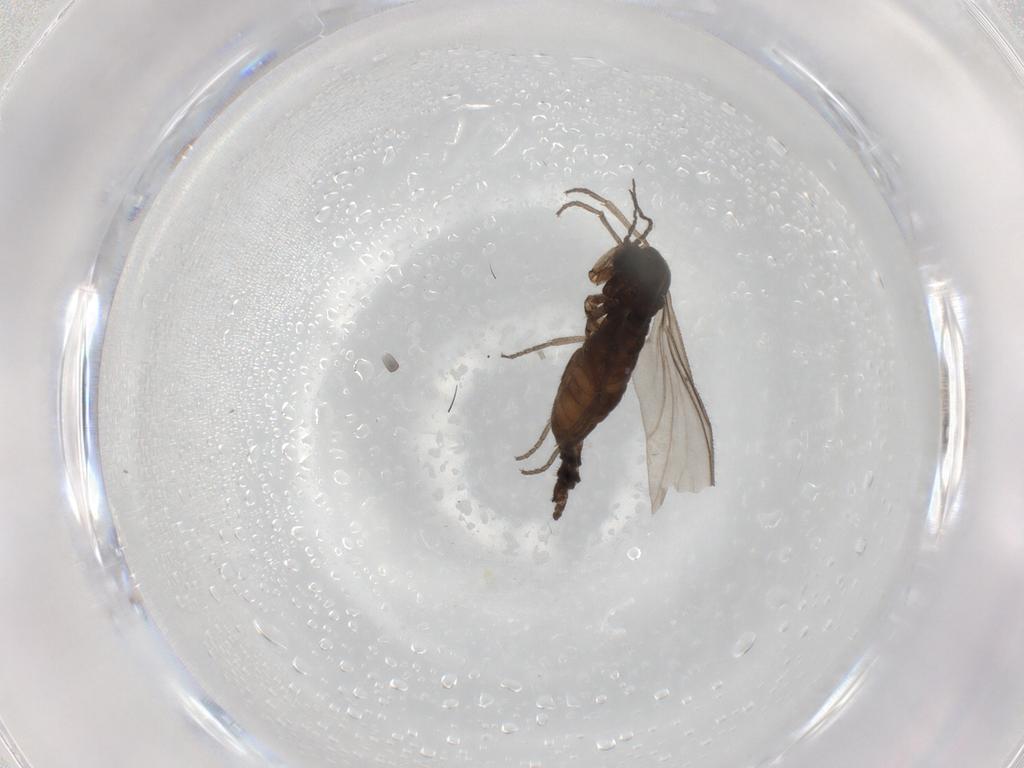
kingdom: Animalia
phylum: Arthropoda
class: Insecta
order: Diptera
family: Sciaridae
